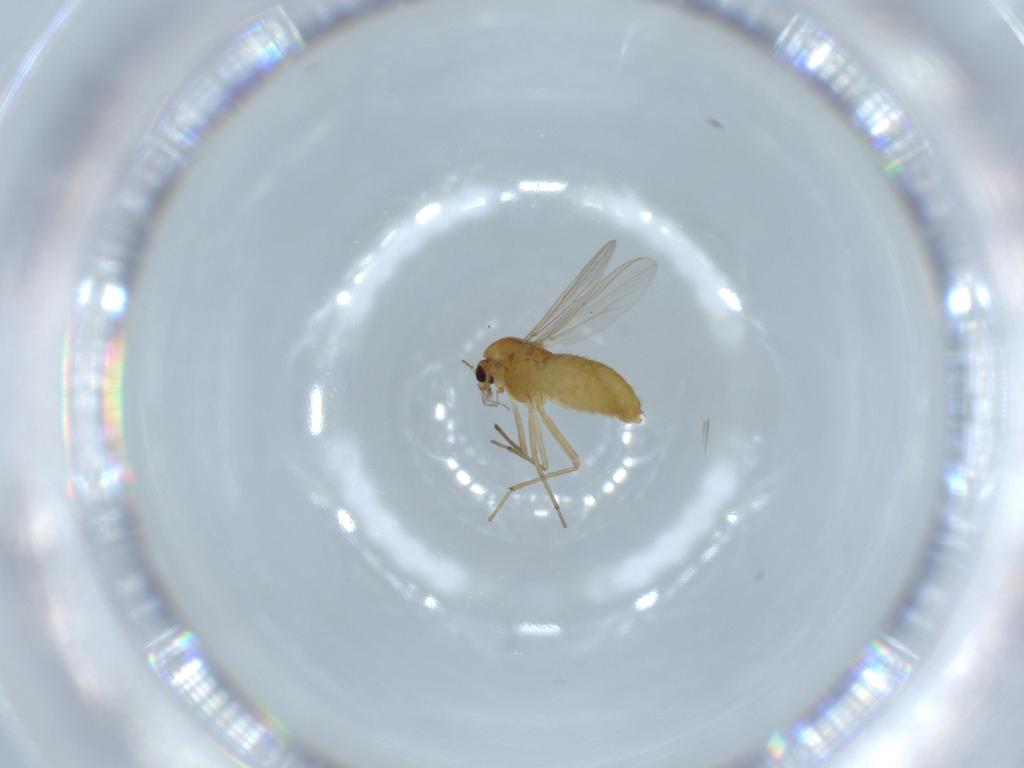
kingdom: Animalia
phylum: Arthropoda
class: Insecta
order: Diptera
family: Chironomidae
